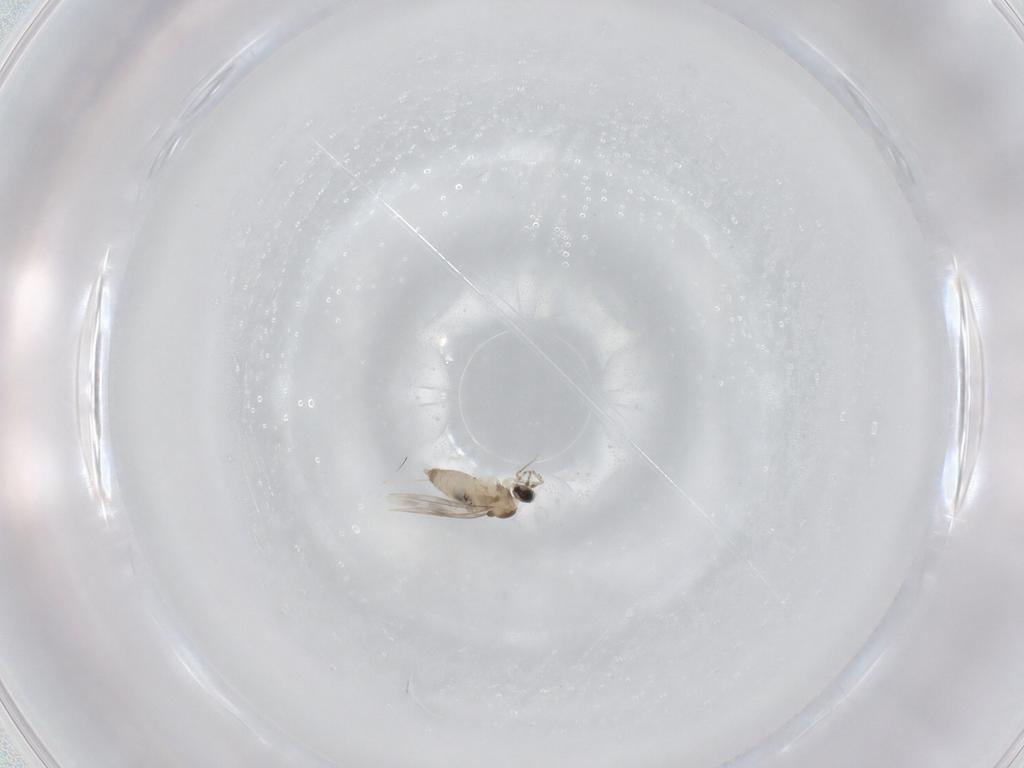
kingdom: Animalia
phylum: Arthropoda
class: Insecta
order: Diptera
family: Cecidomyiidae
